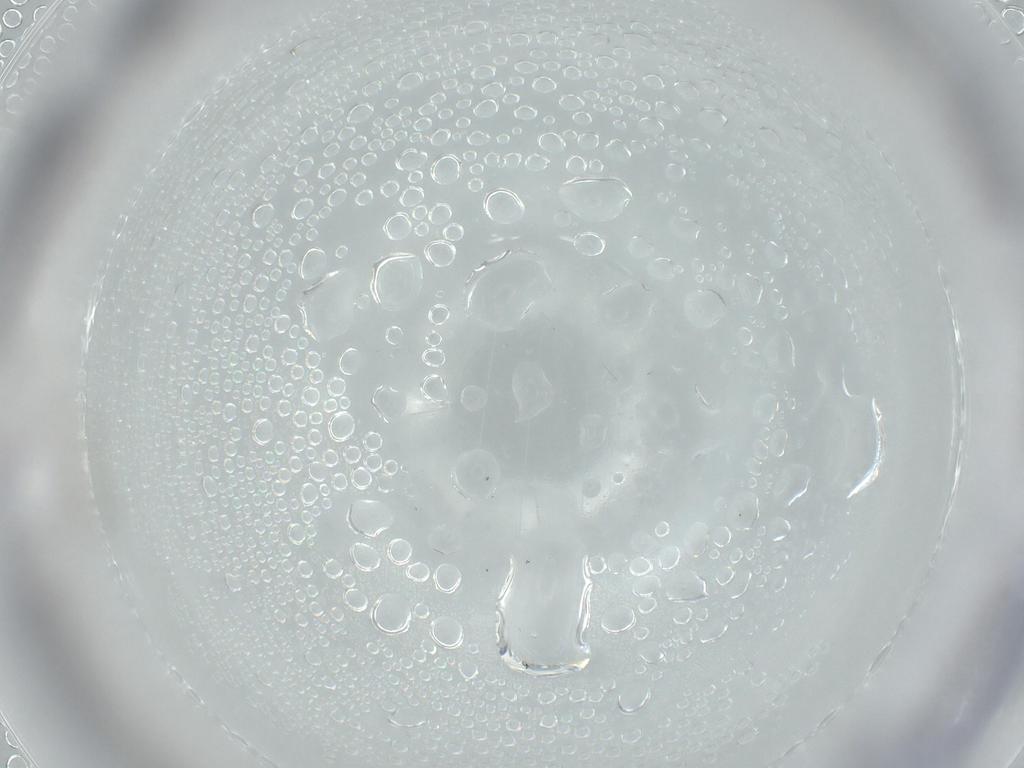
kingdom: Animalia
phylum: Arthropoda
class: Insecta
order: Diptera
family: Cecidomyiidae
